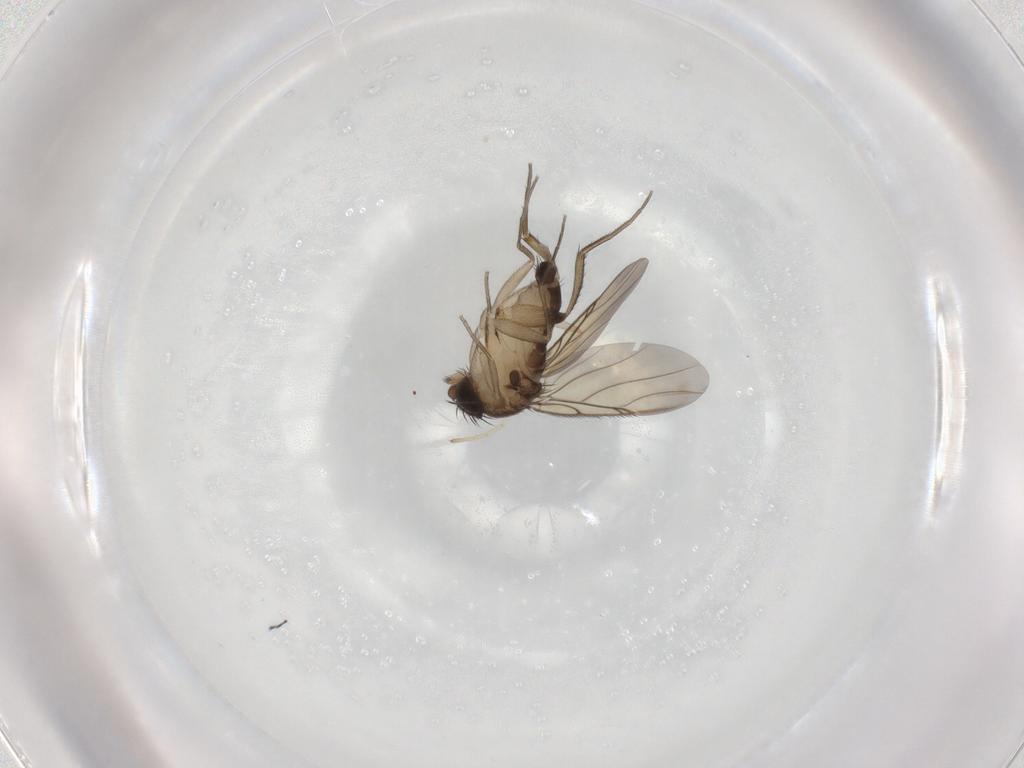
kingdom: Animalia
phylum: Arthropoda
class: Insecta
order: Diptera
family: Phoridae
